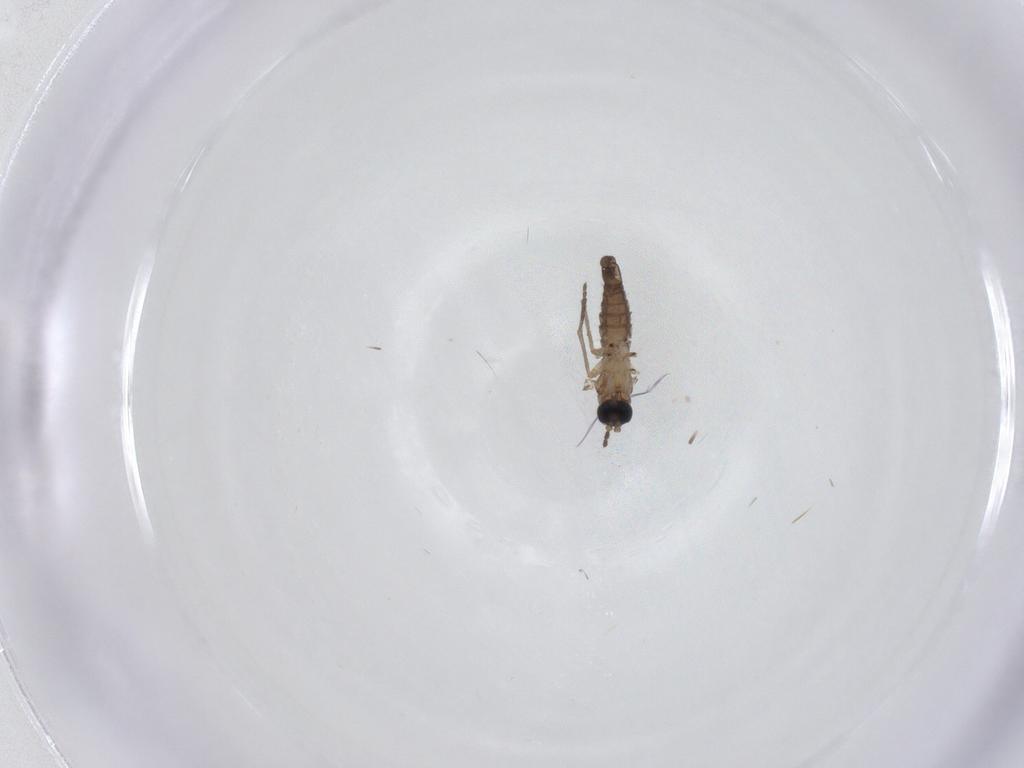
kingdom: Animalia
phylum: Arthropoda
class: Insecta
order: Diptera
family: Sciaridae
